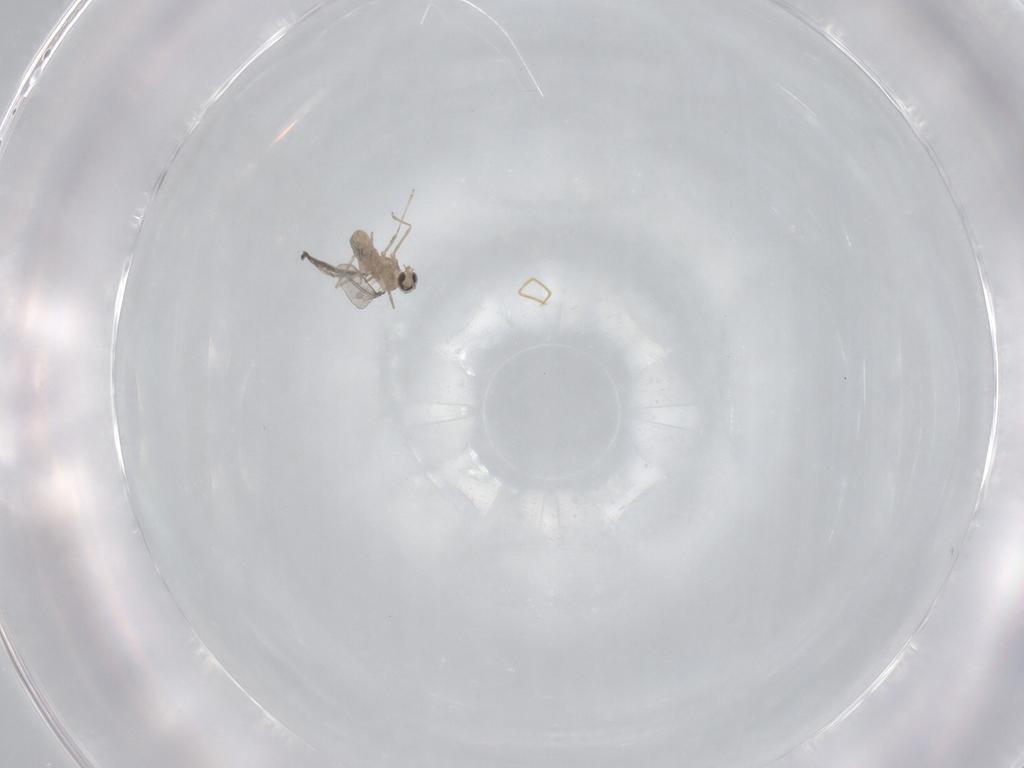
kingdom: Animalia
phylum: Arthropoda
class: Insecta
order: Diptera
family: Cecidomyiidae
